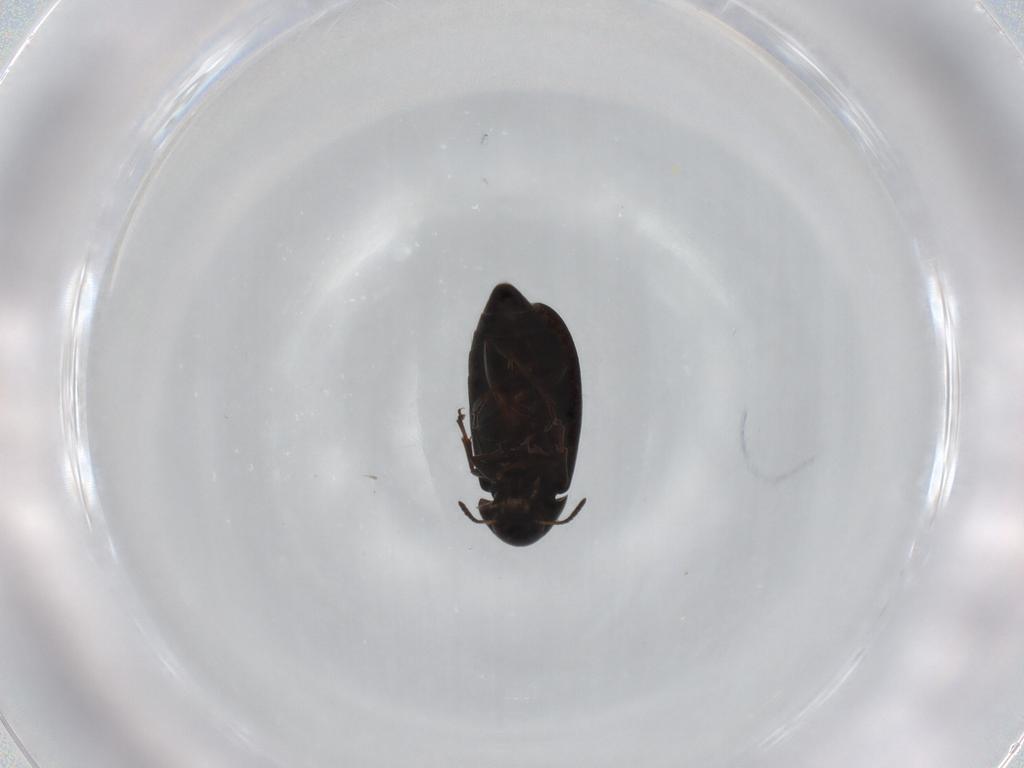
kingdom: Animalia
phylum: Arthropoda
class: Insecta
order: Coleoptera
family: Scraptiidae
